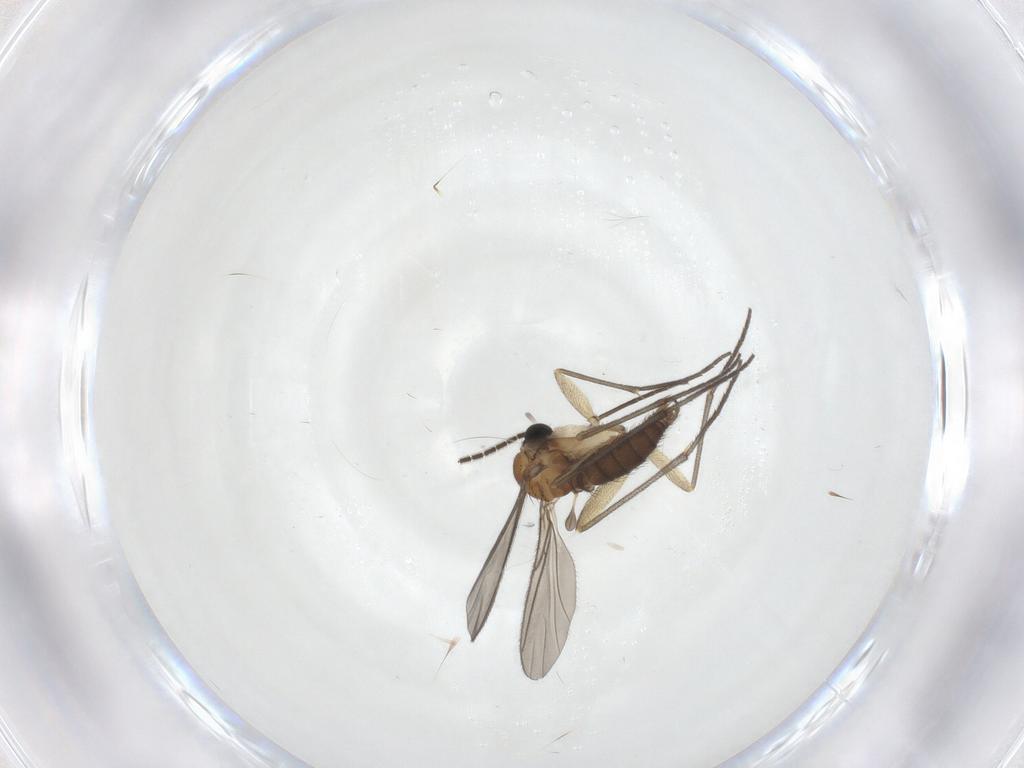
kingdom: Animalia
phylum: Arthropoda
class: Insecta
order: Diptera
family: Sciaridae
